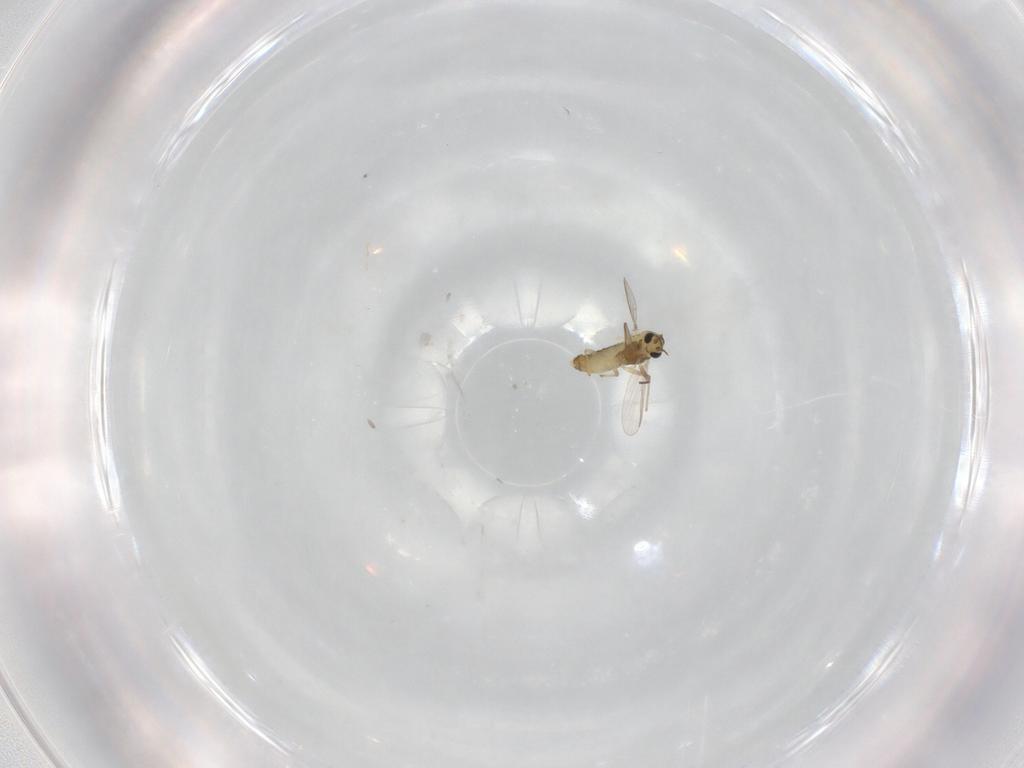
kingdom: Animalia
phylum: Arthropoda
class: Insecta
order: Diptera
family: Chironomidae
